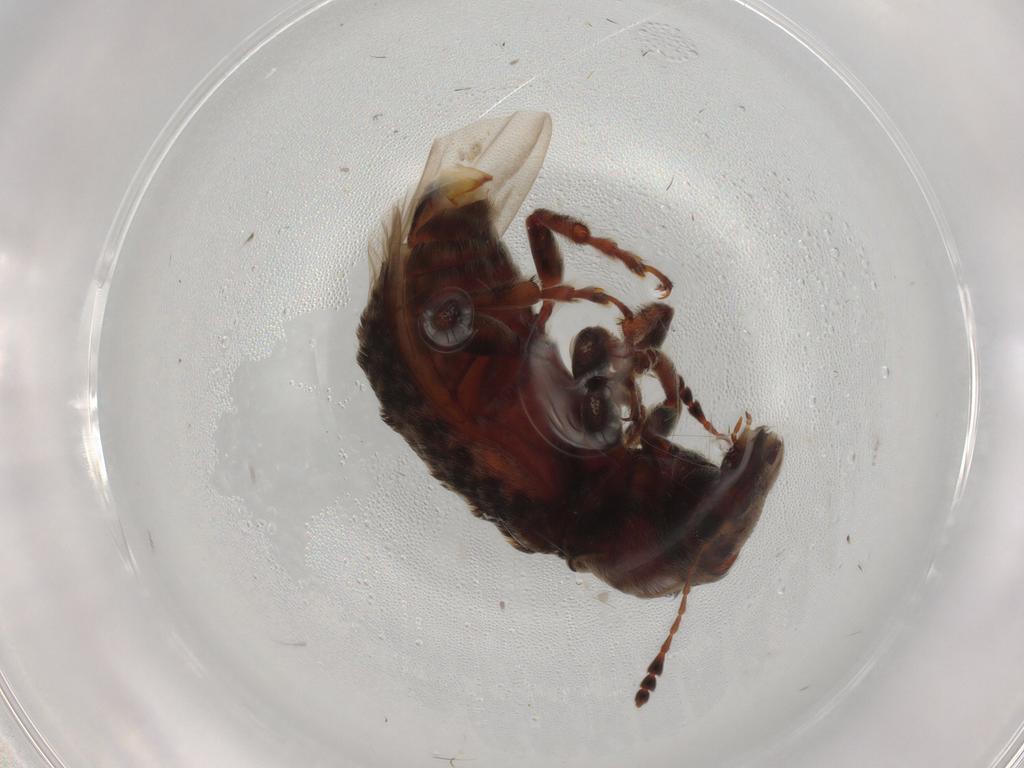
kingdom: Animalia
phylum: Arthropoda
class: Insecta
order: Coleoptera
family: Anthribidae
